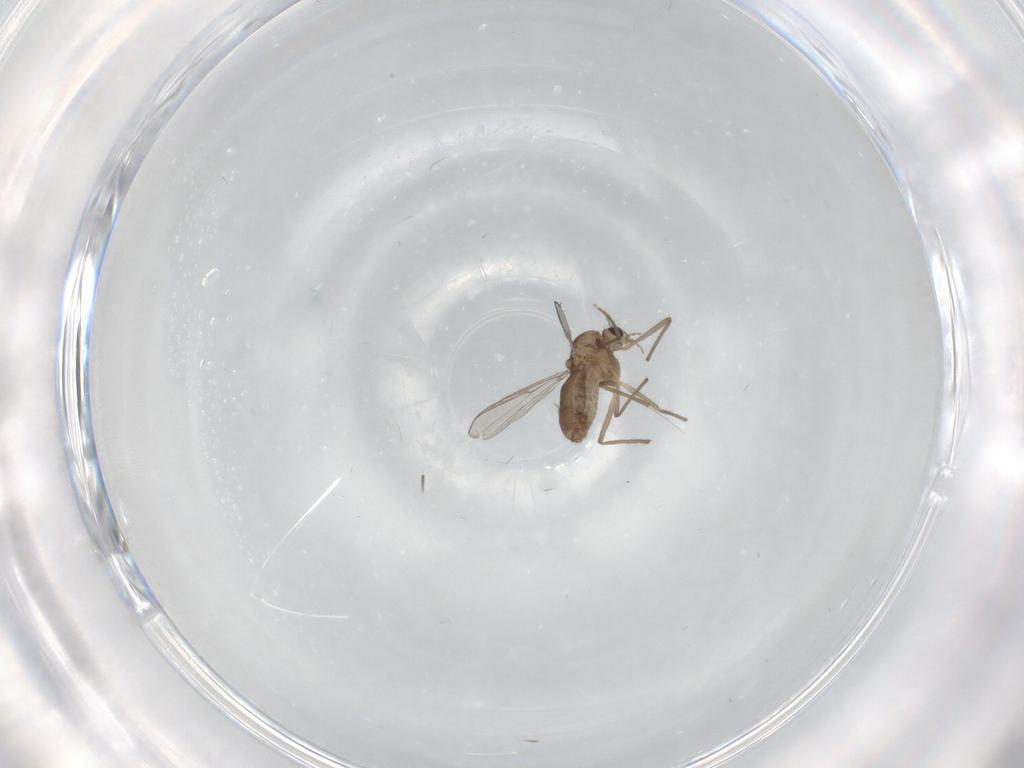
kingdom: Animalia
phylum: Arthropoda
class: Insecta
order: Diptera
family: Chironomidae
